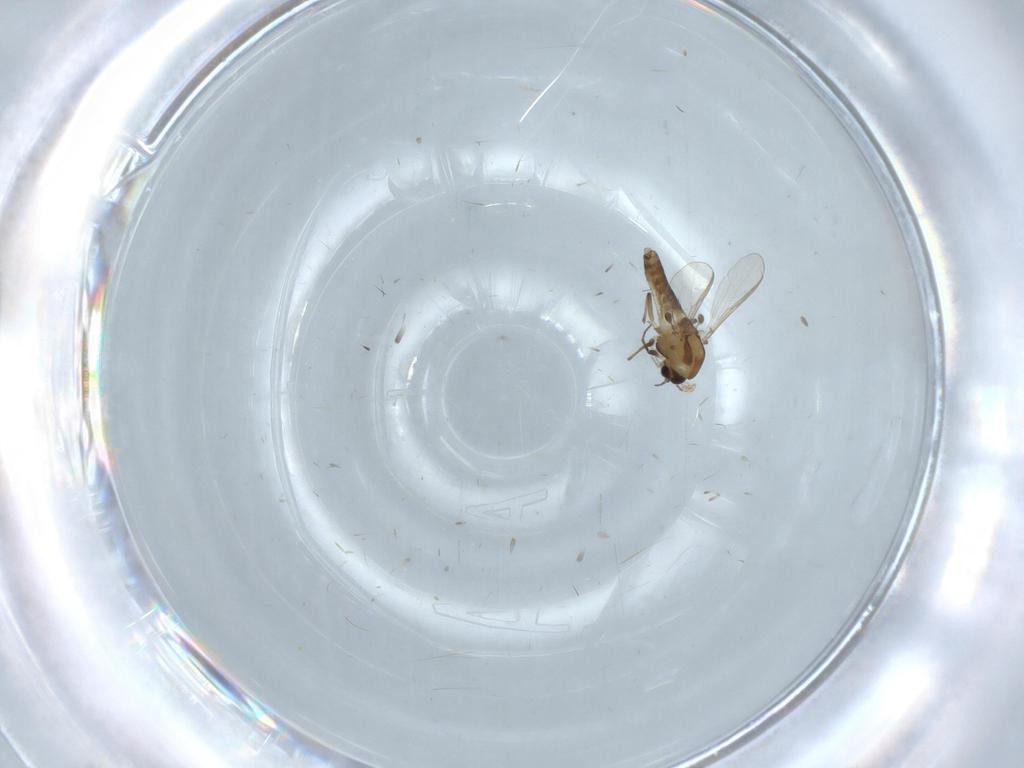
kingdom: Animalia
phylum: Arthropoda
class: Insecta
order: Diptera
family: Chironomidae
